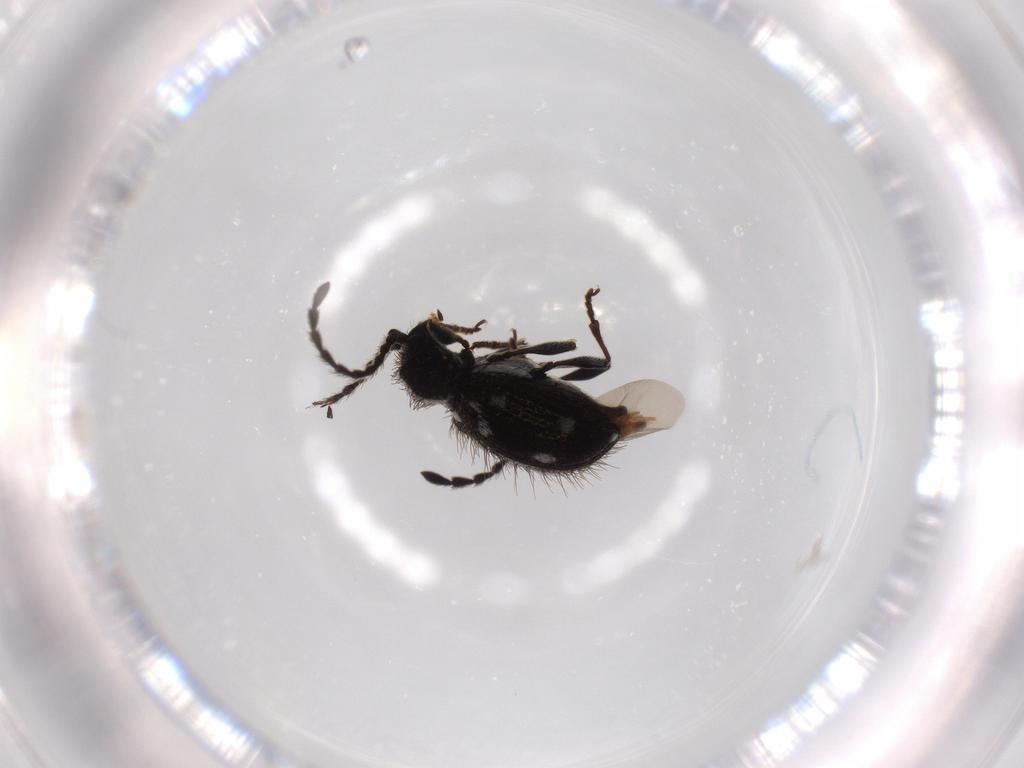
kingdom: Animalia
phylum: Arthropoda
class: Insecta
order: Coleoptera
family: Ptinidae
